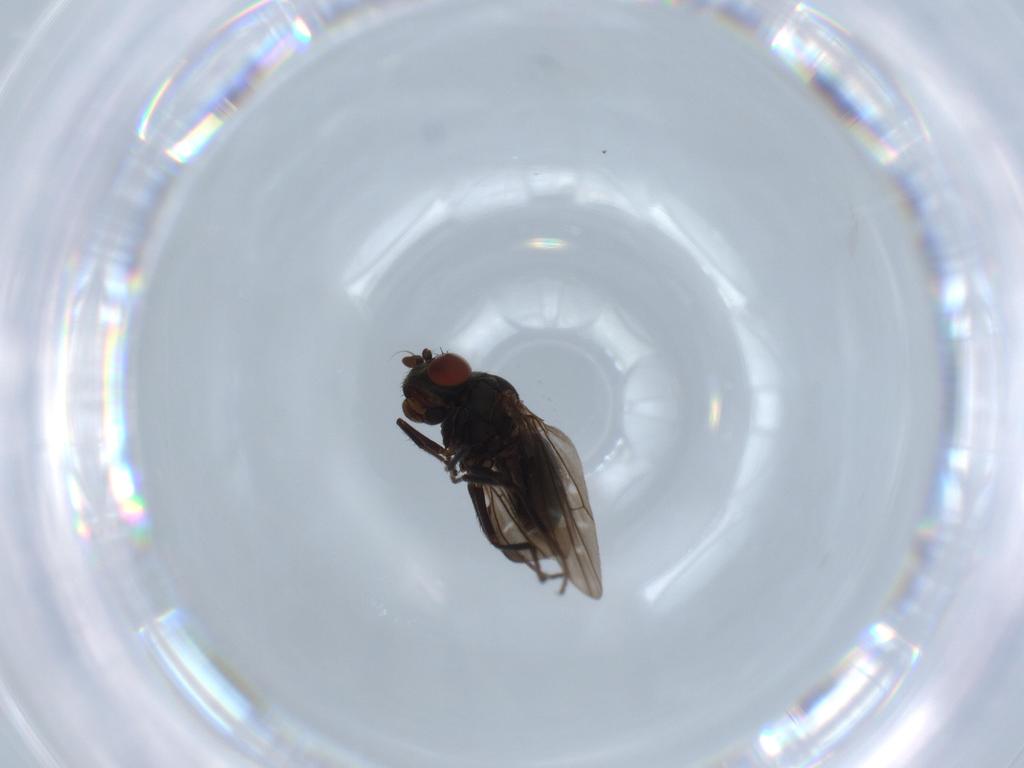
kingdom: Animalia
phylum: Arthropoda
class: Insecta
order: Diptera
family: Ephydridae
